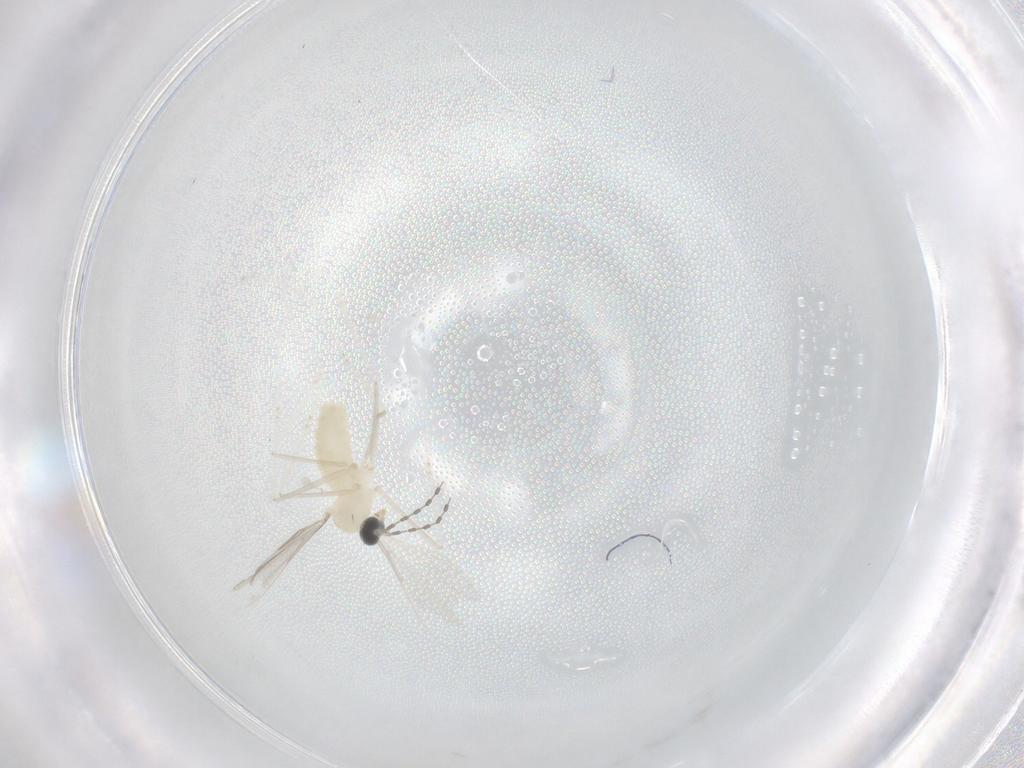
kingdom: Animalia
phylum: Arthropoda
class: Insecta
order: Diptera
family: Cecidomyiidae
